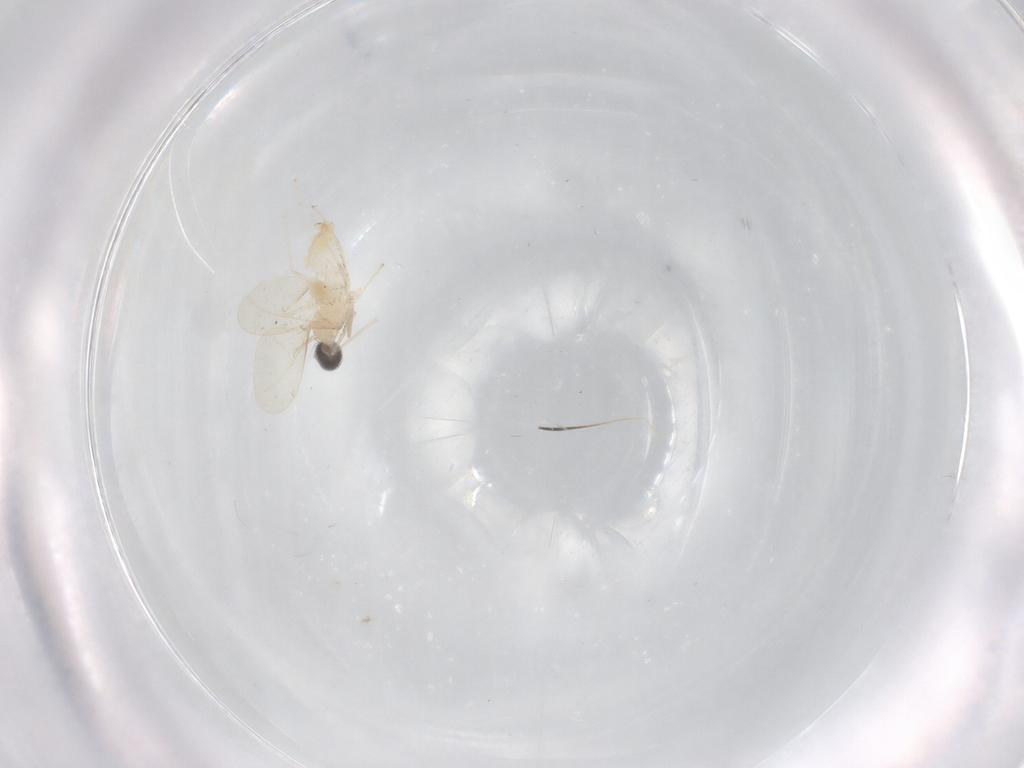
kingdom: Animalia
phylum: Arthropoda
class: Insecta
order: Diptera
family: Cecidomyiidae
